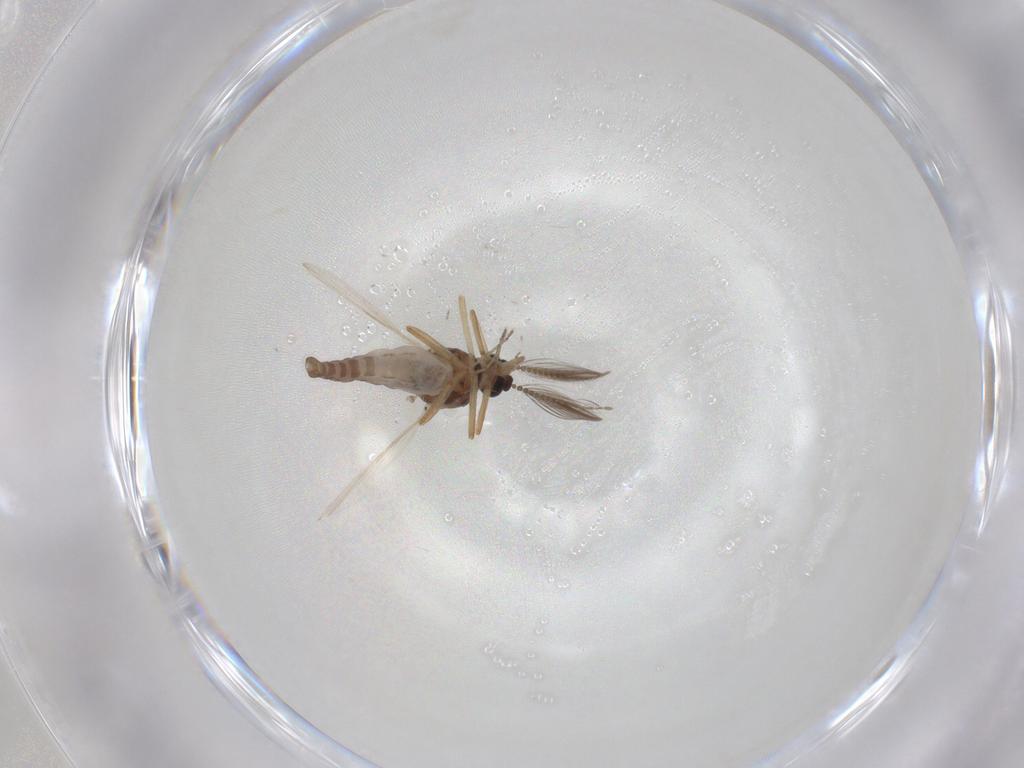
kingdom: Animalia
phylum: Arthropoda
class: Insecta
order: Diptera
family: Ceratopogonidae
